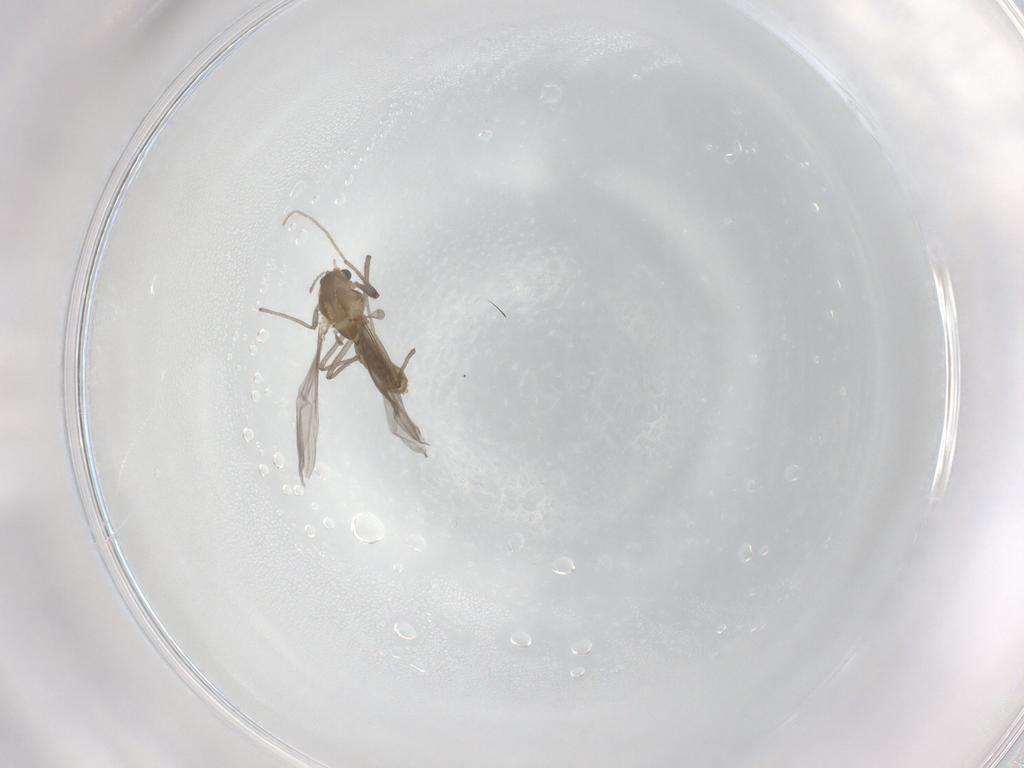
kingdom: Animalia
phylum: Arthropoda
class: Insecta
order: Diptera
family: Chironomidae
